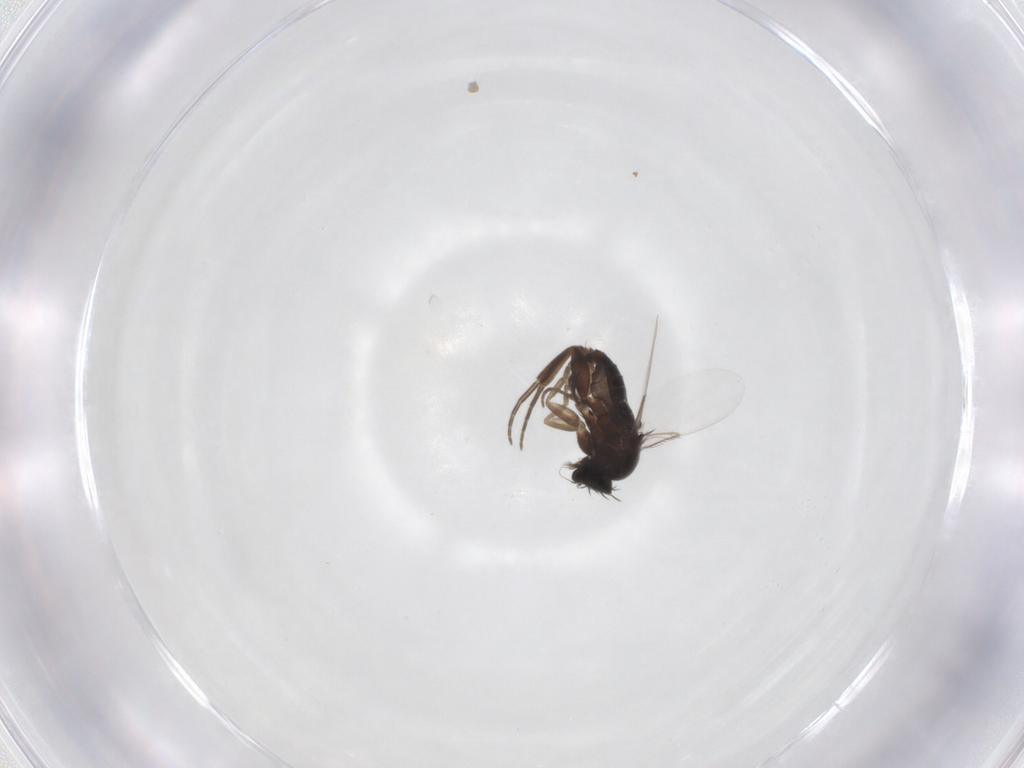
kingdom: Animalia
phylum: Arthropoda
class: Insecta
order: Diptera
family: Phoridae
